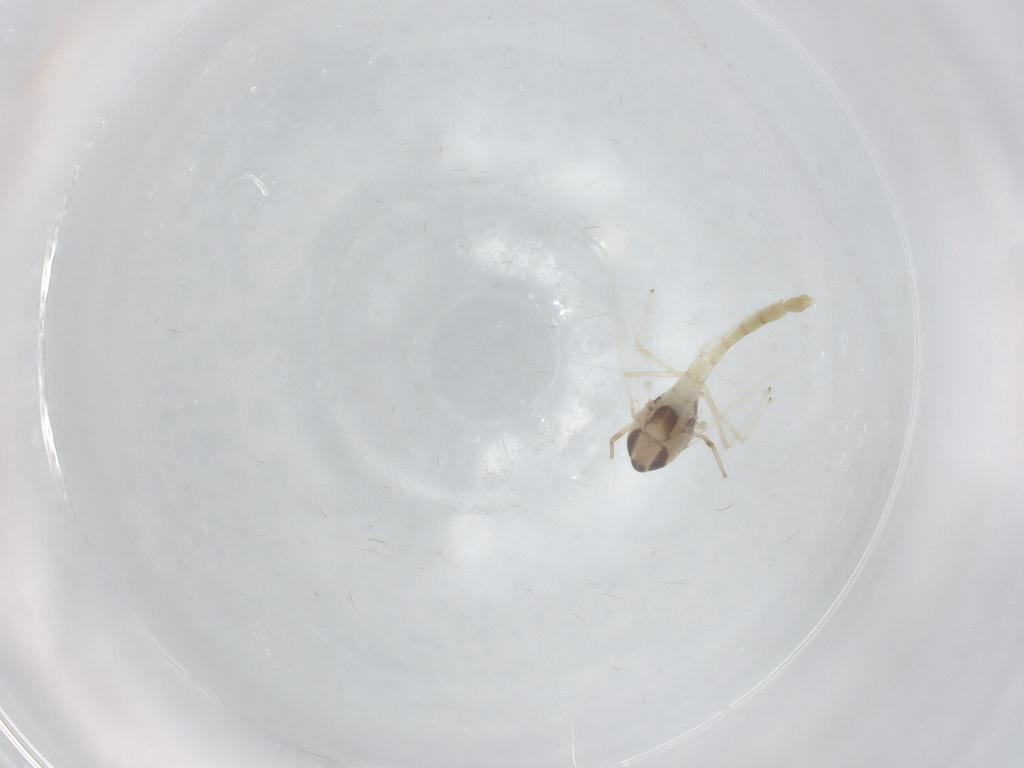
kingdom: Animalia
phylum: Arthropoda
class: Insecta
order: Diptera
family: Chironomidae
